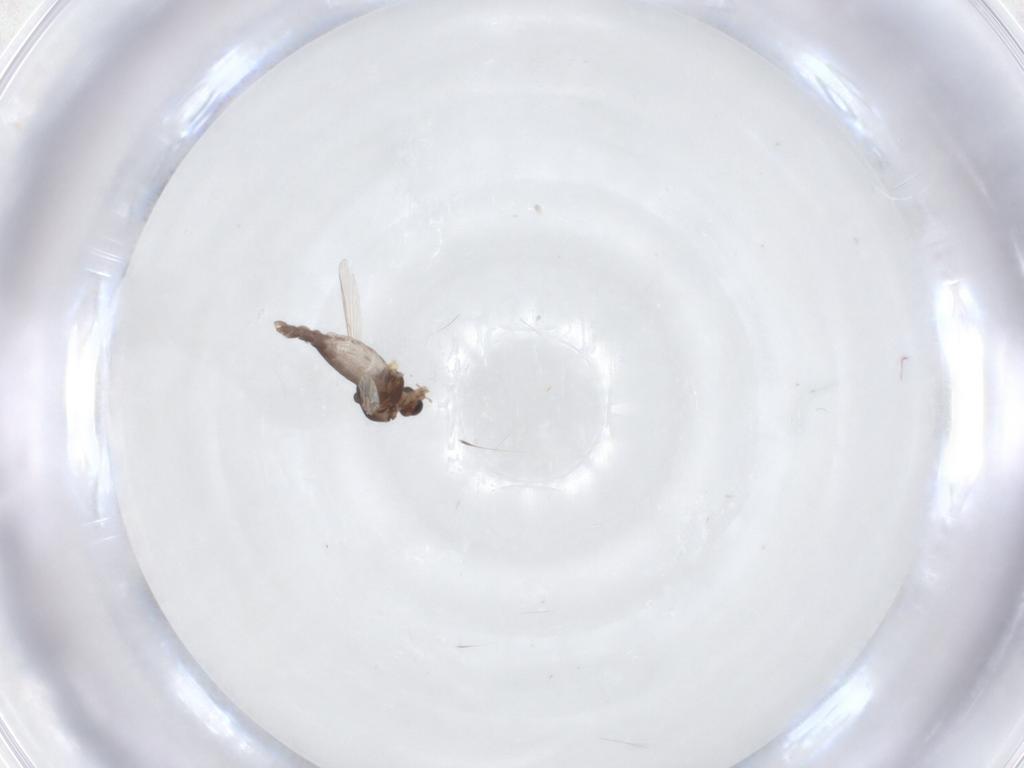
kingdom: Animalia
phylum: Arthropoda
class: Insecta
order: Diptera
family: Chironomidae
